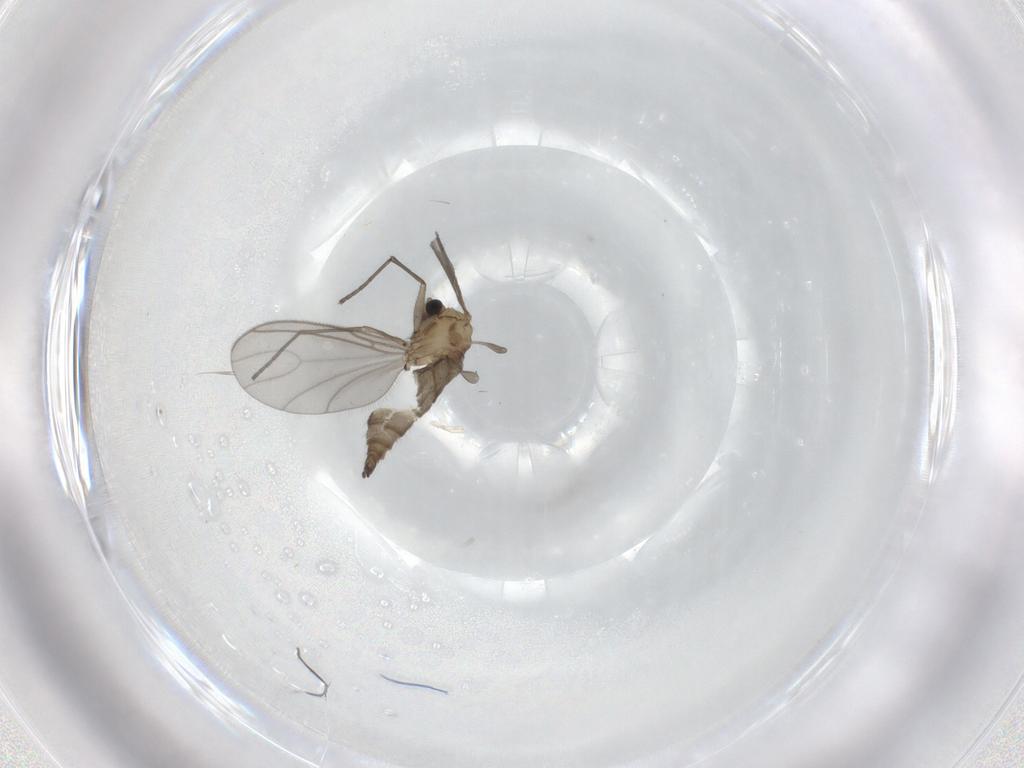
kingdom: Animalia
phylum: Arthropoda
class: Insecta
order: Diptera
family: Sciaridae
